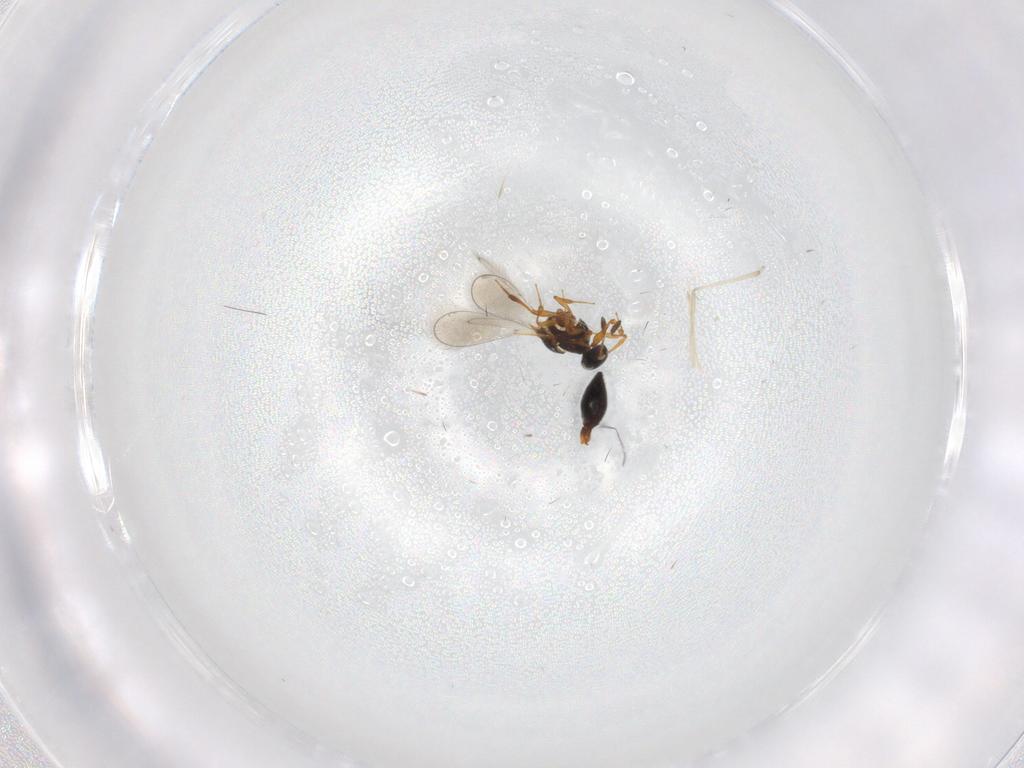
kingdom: Animalia
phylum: Arthropoda
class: Insecta
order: Hymenoptera
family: Platygastridae
